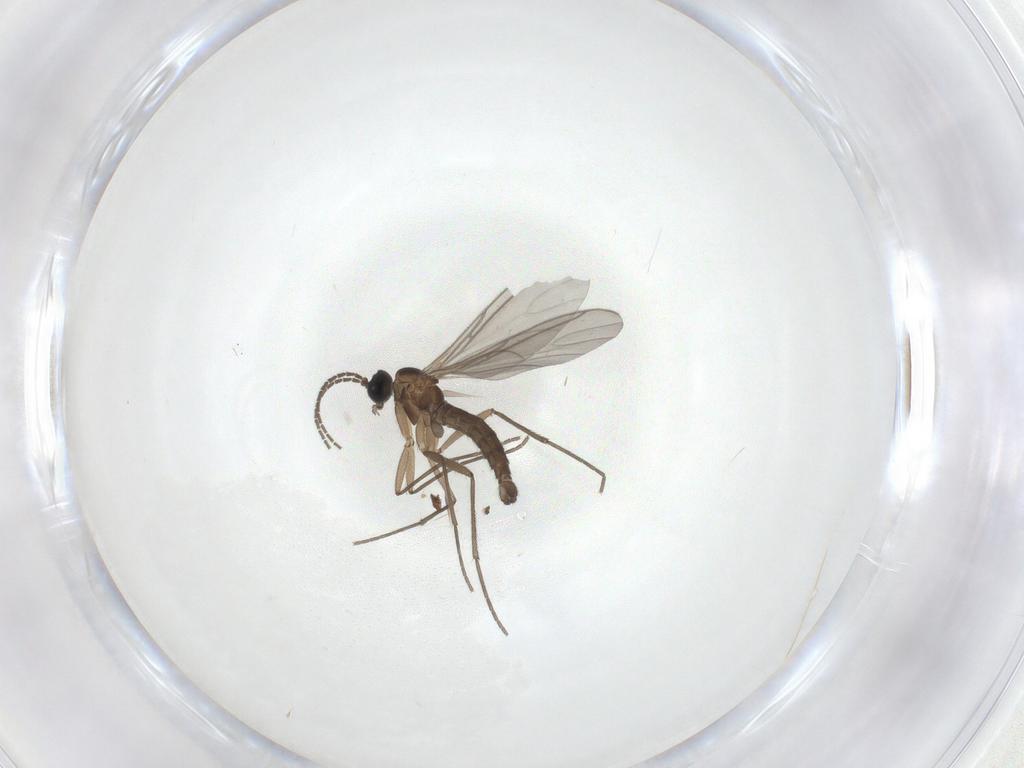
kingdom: Animalia
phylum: Arthropoda
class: Insecta
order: Diptera
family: Sciaridae
